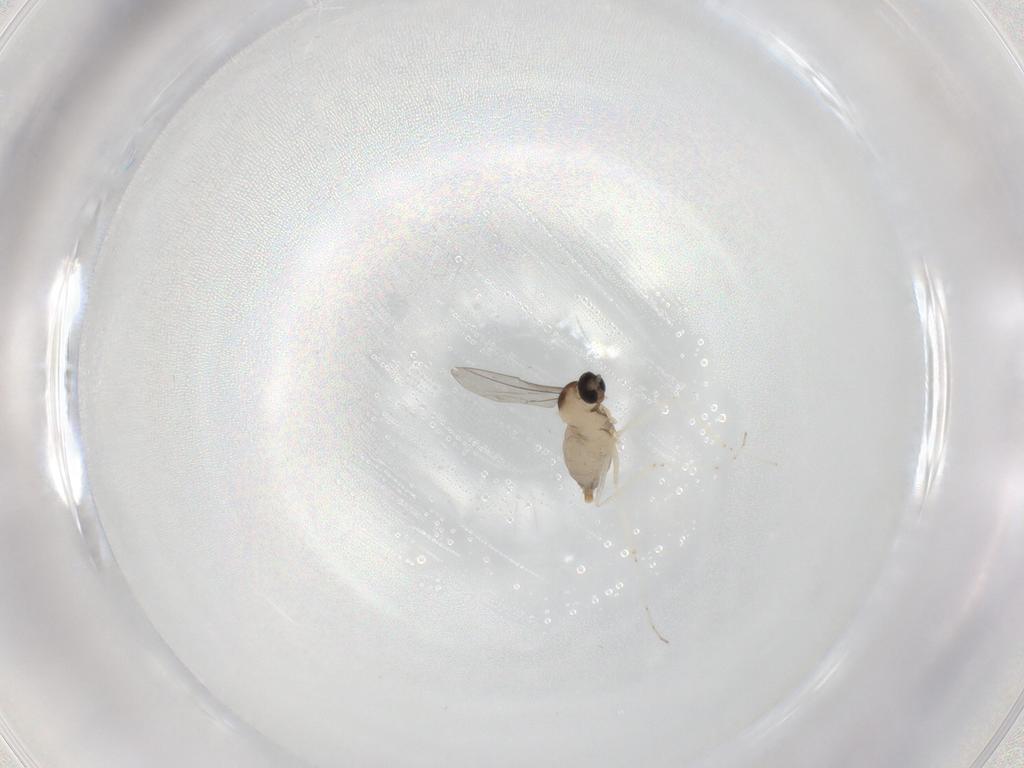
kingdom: Animalia
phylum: Arthropoda
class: Insecta
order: Diptera
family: Cecidomyiidae
